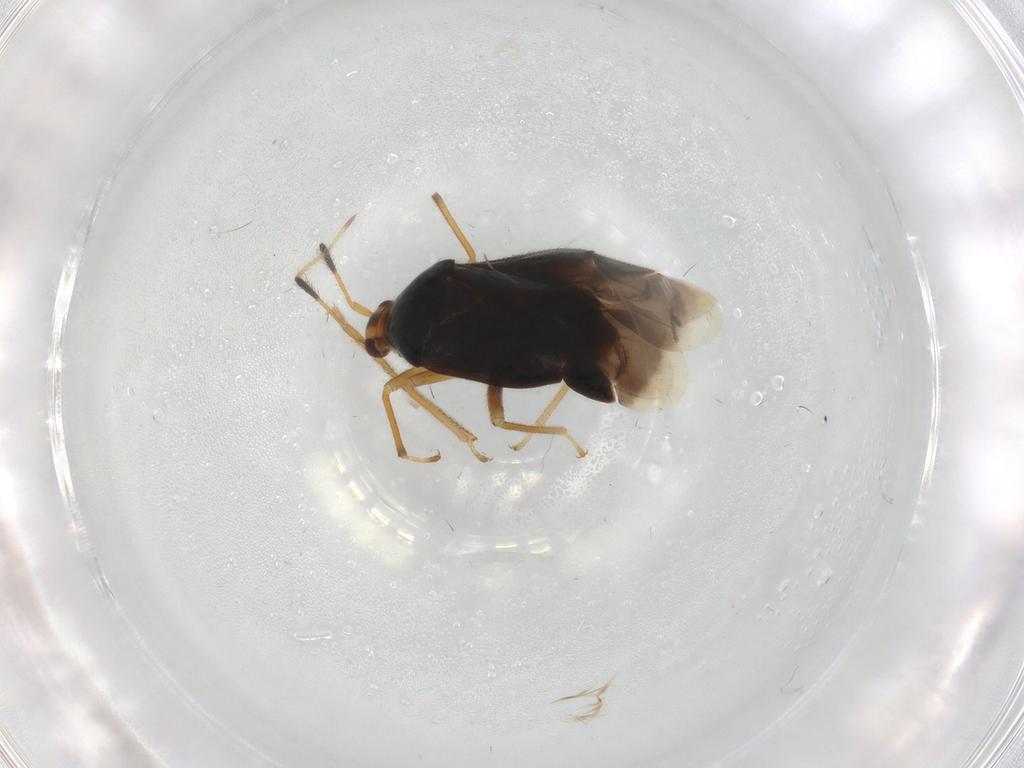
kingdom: Animalia
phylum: Arthropoda
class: Insecta
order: Hemiptera
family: Miridae
